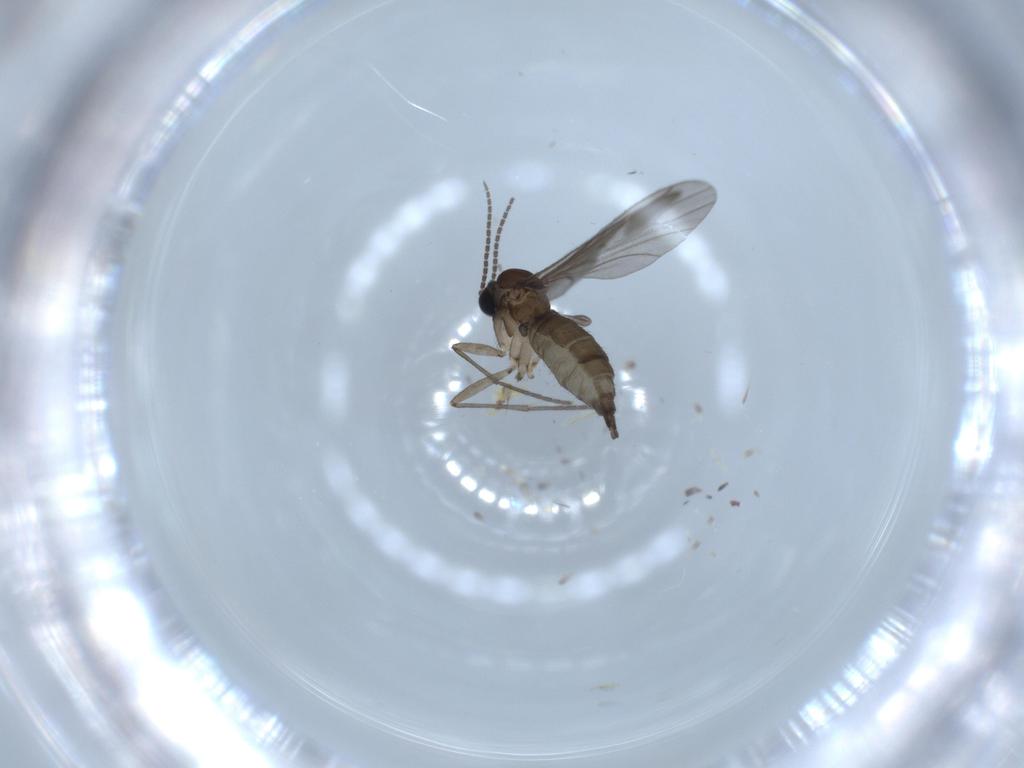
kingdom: Animalia
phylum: Arthropoda
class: Insecta
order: Diptera
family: Sciaridae
